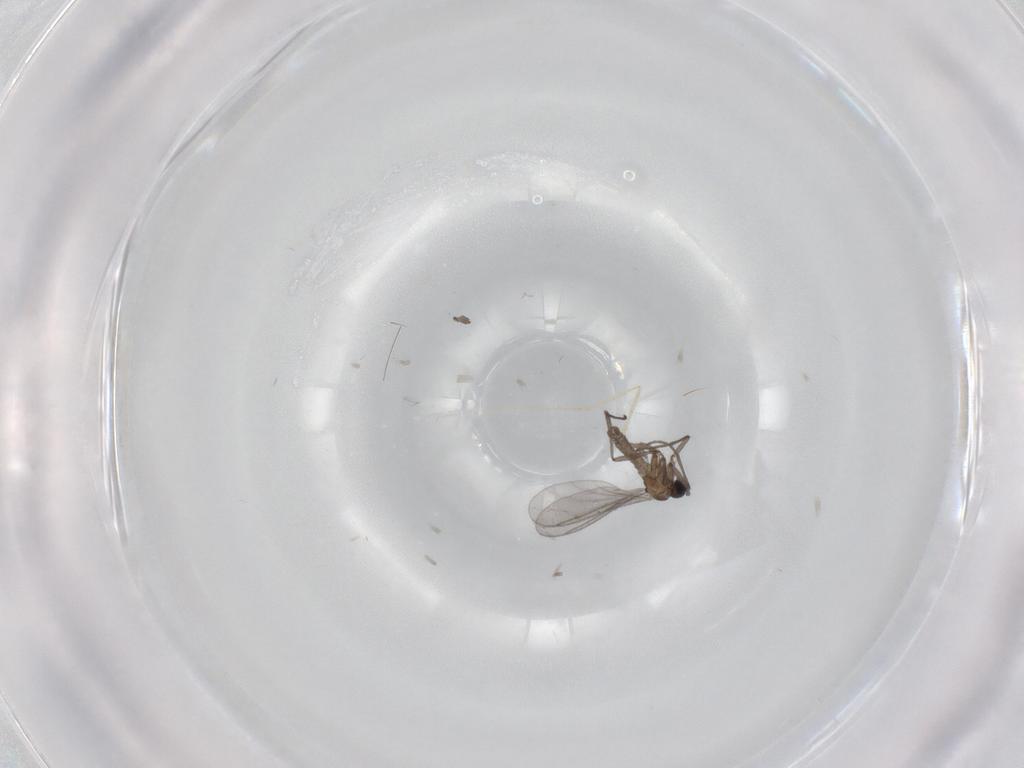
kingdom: Animalia
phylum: Arthropoda
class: Insecta
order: Diptera
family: Sciaridae
